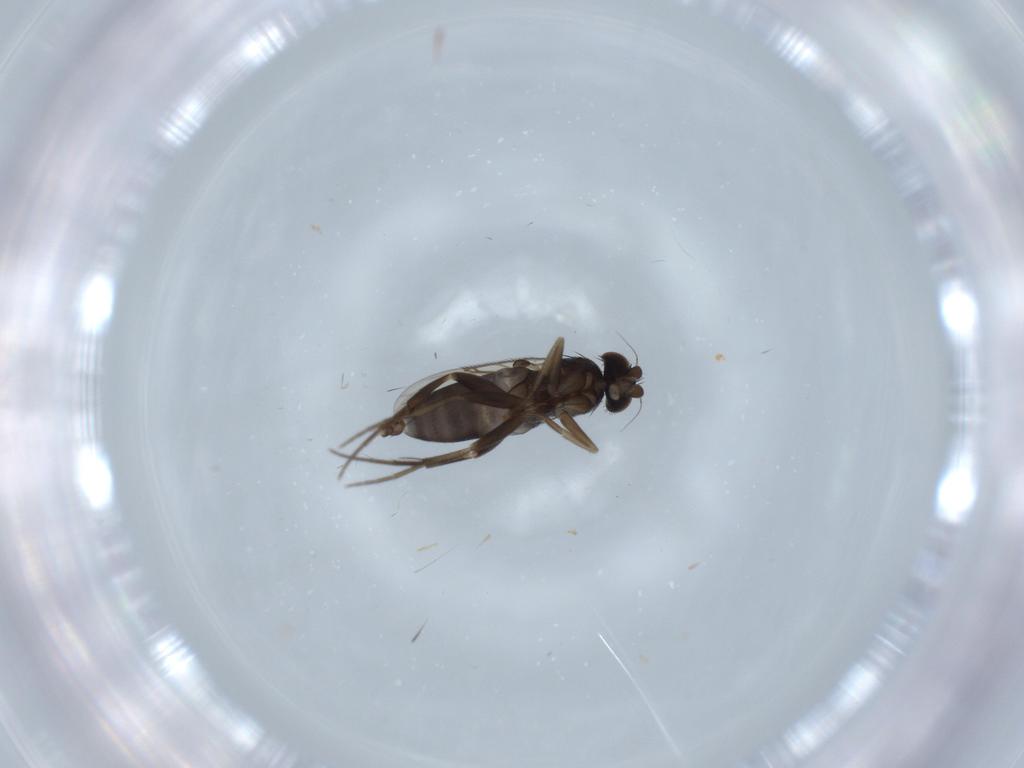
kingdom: Animalia
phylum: Arthropoda
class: Insecta
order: Diptera
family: Phoridae
